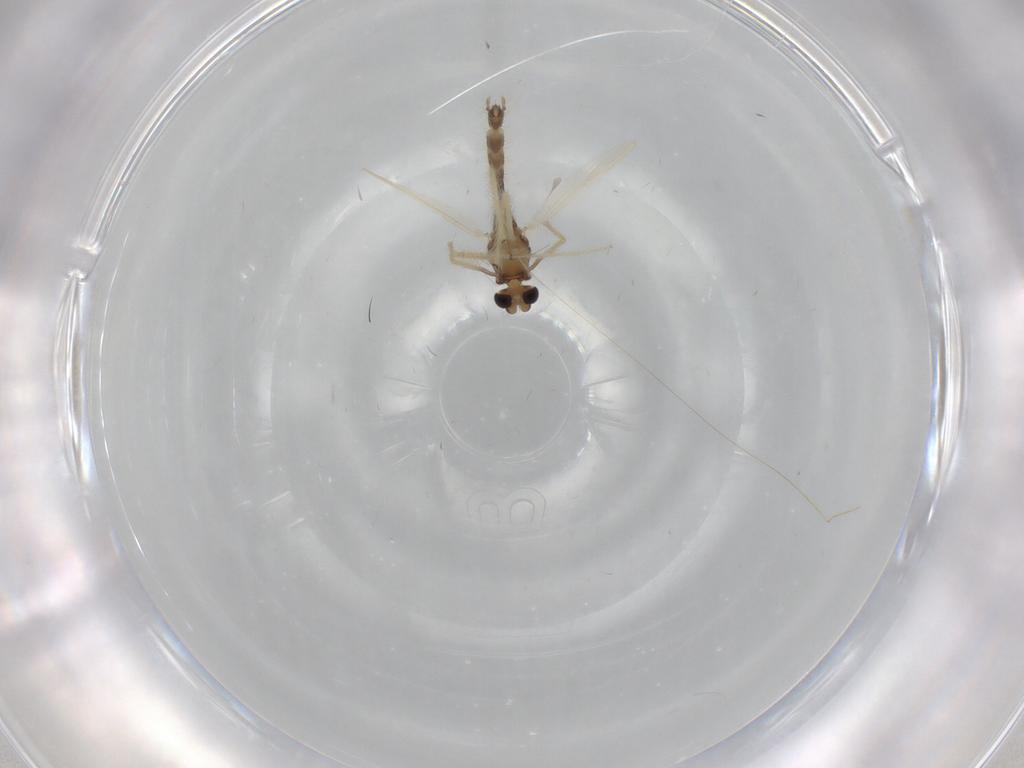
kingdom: Animalia
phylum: Arthropoda
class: Insecta
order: Diptera
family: Chironomidae
